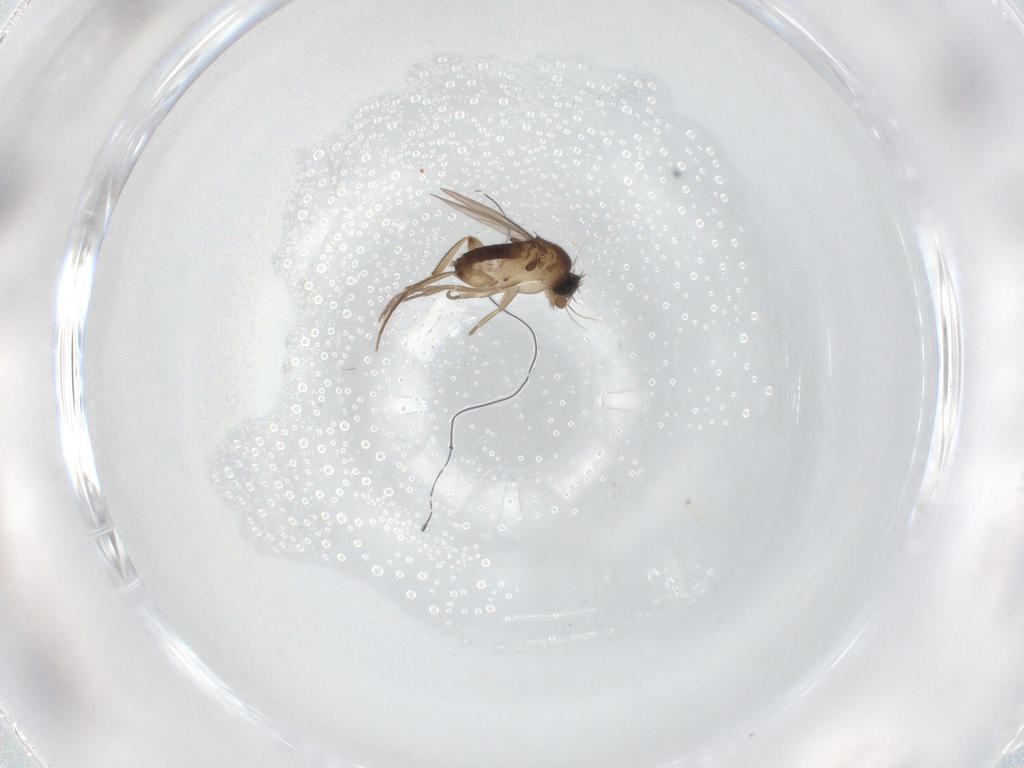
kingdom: Animalia
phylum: Arthropoda
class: Insecta
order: Diptera
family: Phoridae
